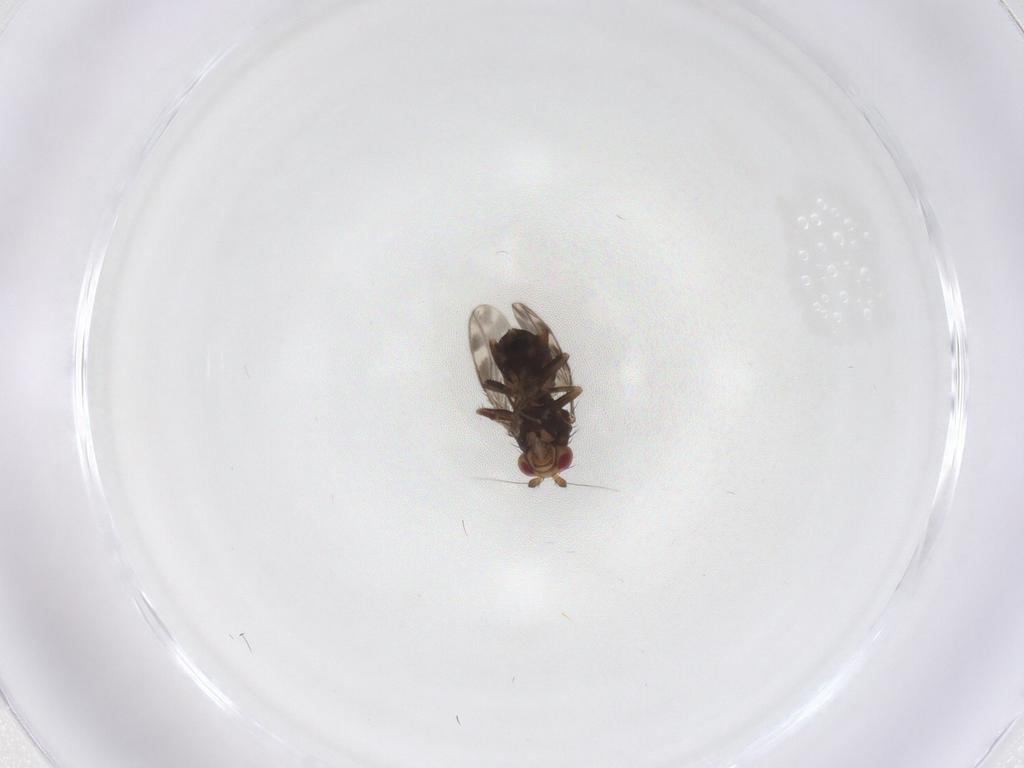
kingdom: Animalia
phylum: Arthropoda
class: Insecta
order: Diptera
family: Sphaeroceridae
